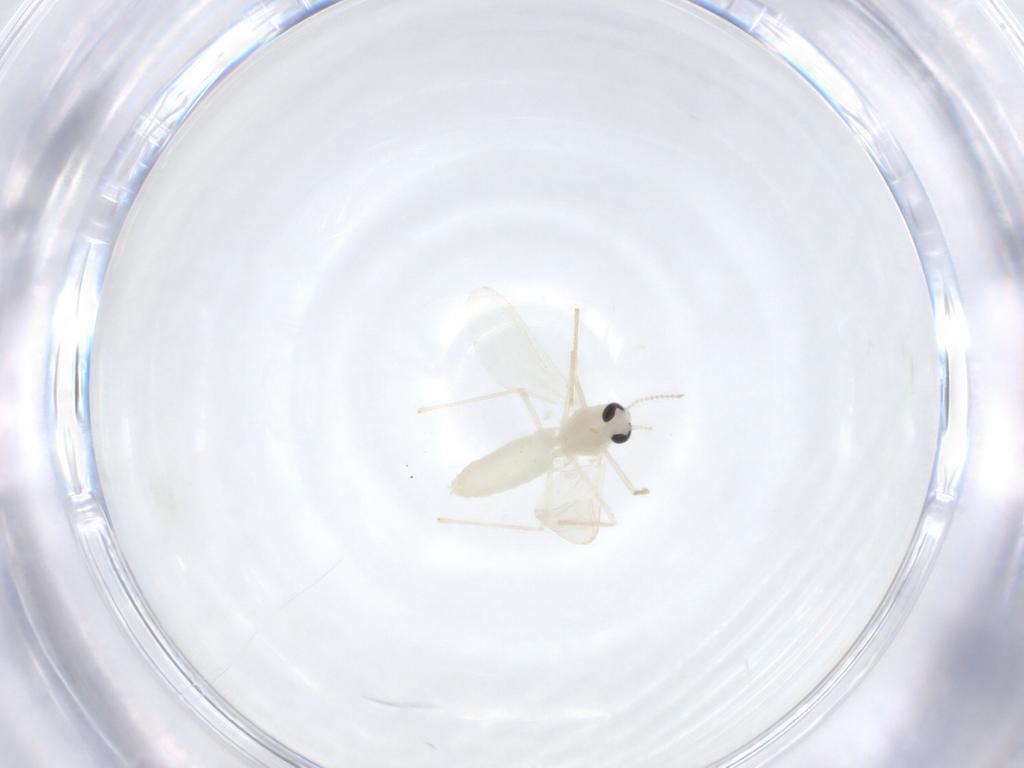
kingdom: Animalia
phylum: Arthropoda
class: Insecta
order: Diptera
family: Chironomidae
